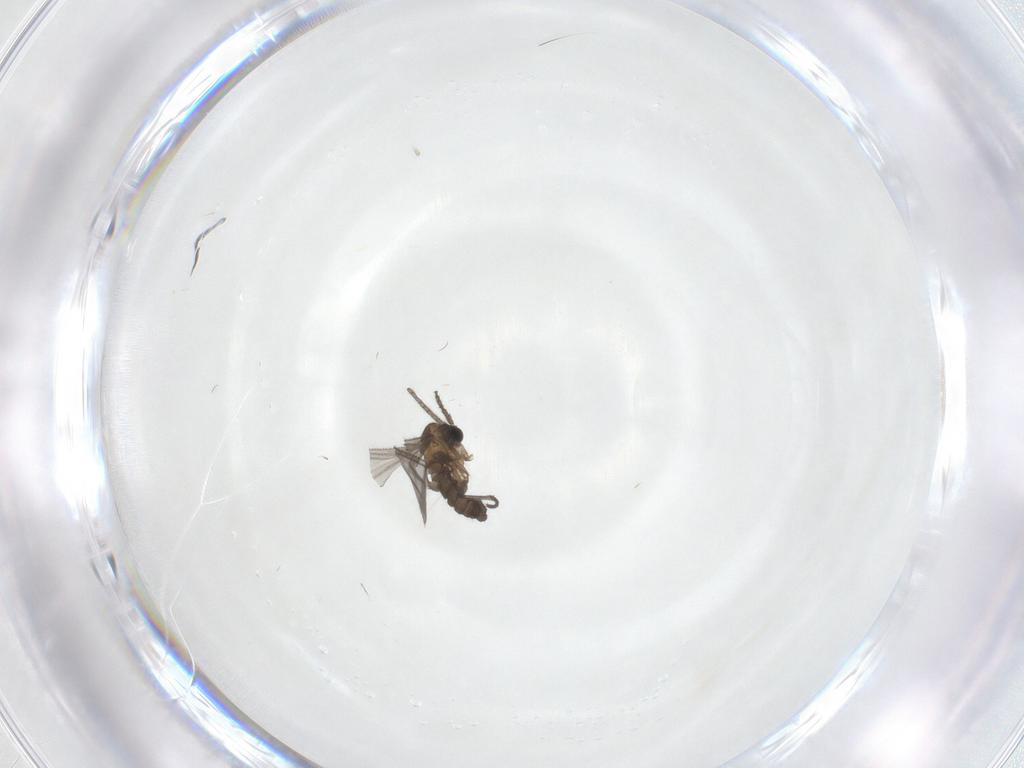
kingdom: Animalia
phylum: Arthropoda
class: Insecta
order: Diptera
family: Sciaridae
